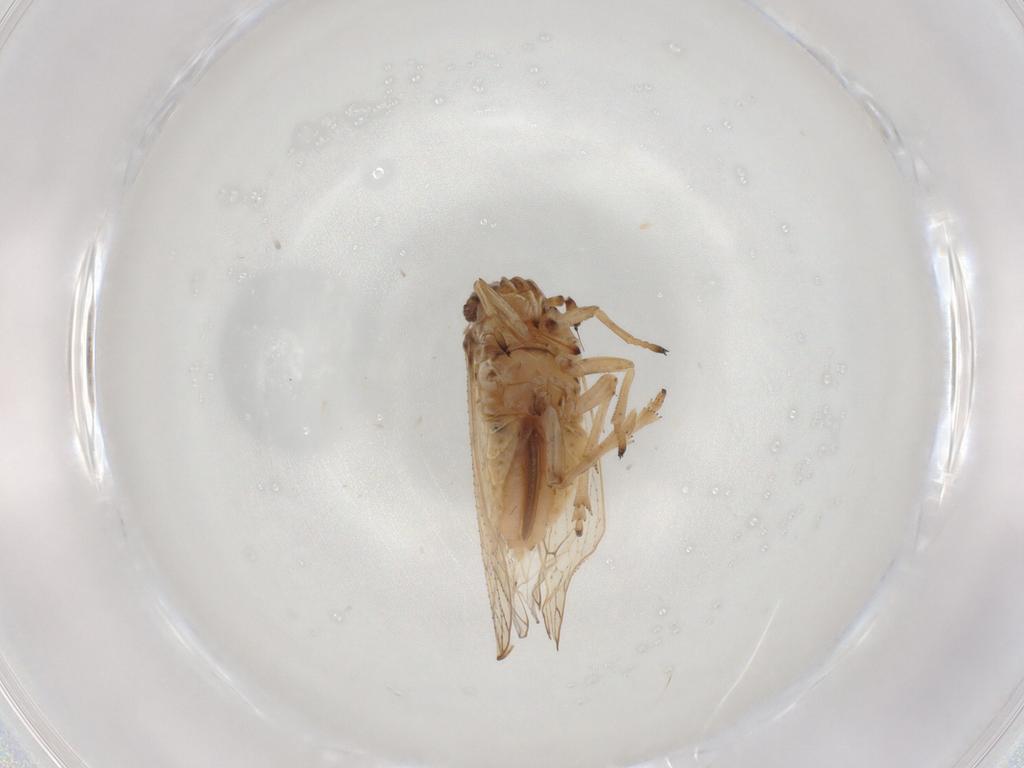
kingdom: Animalia
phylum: Arthropoda
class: Insecta
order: Hemiptera
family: Delphacidae
